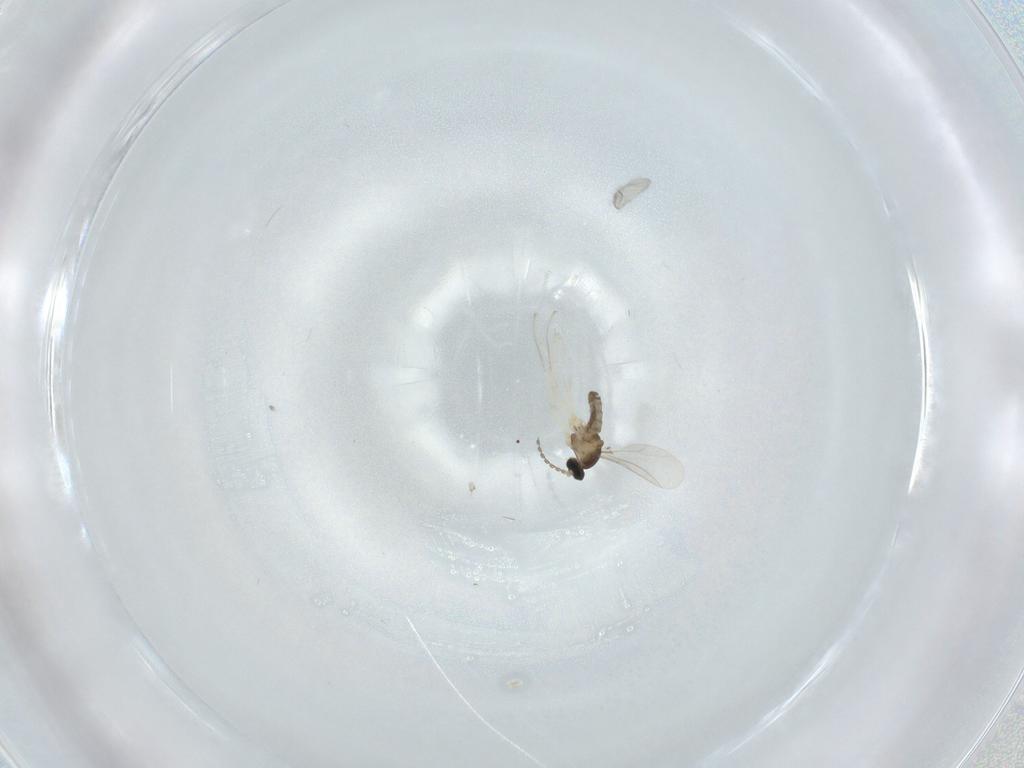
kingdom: Animalia
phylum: Arthropoda
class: Insecta
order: Diptera
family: Cecidomyiidae
